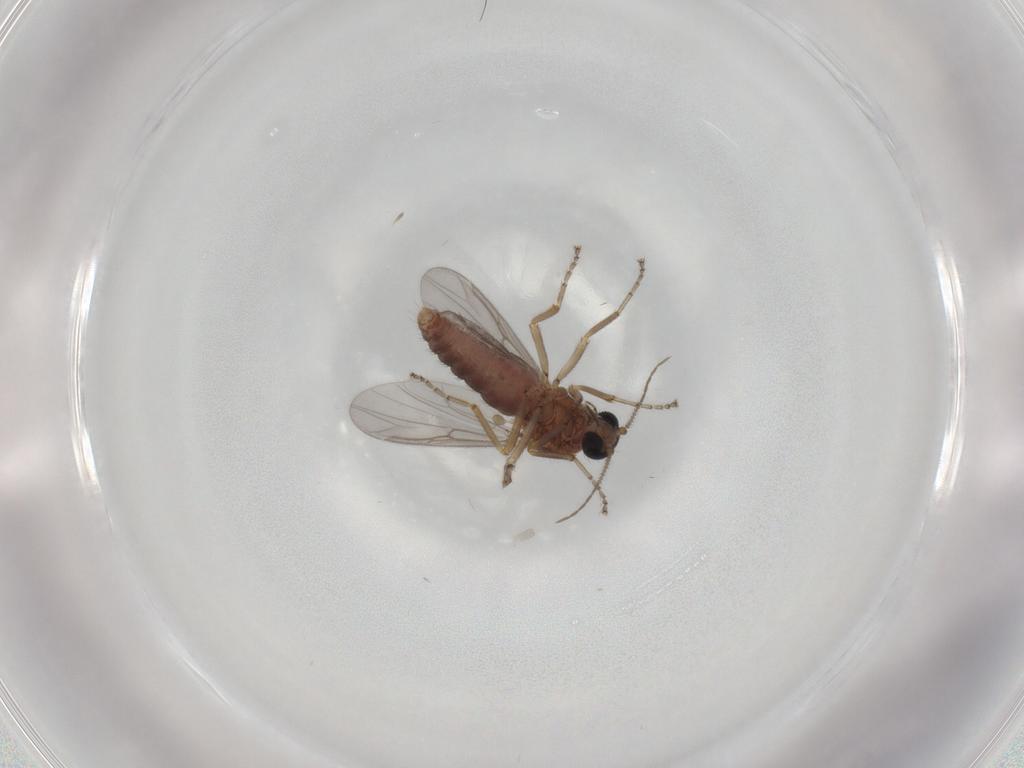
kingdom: Animalia
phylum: Arthropoda
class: Insecta
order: Diptera
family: Ceratopogonidae
